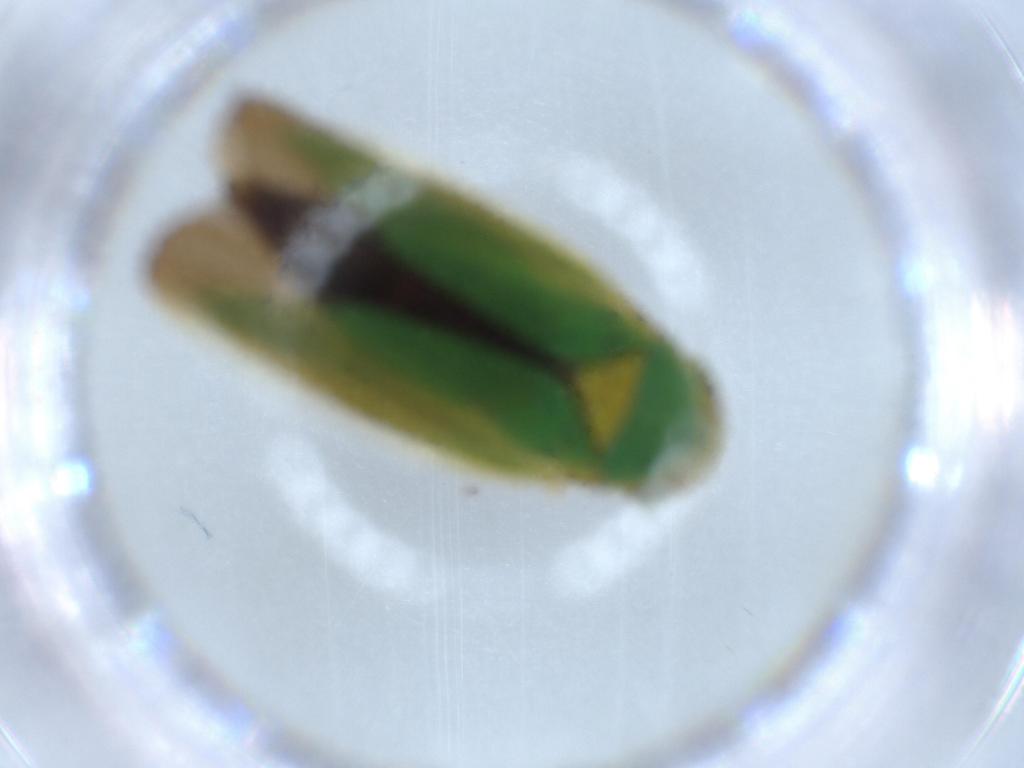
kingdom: Animalia
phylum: Arthropoda
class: Insecta
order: Hemiptera
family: Cicadellidae
